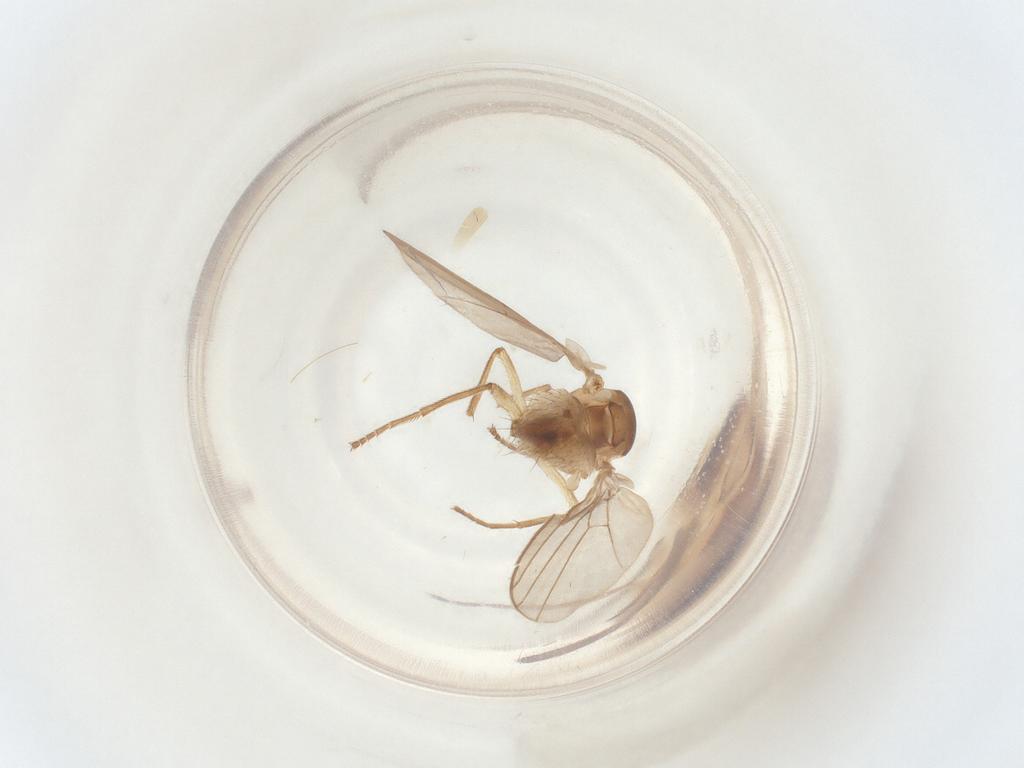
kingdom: Animalia
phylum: Arthropoda
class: Insecta
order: Diptera
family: Agromyzidae
